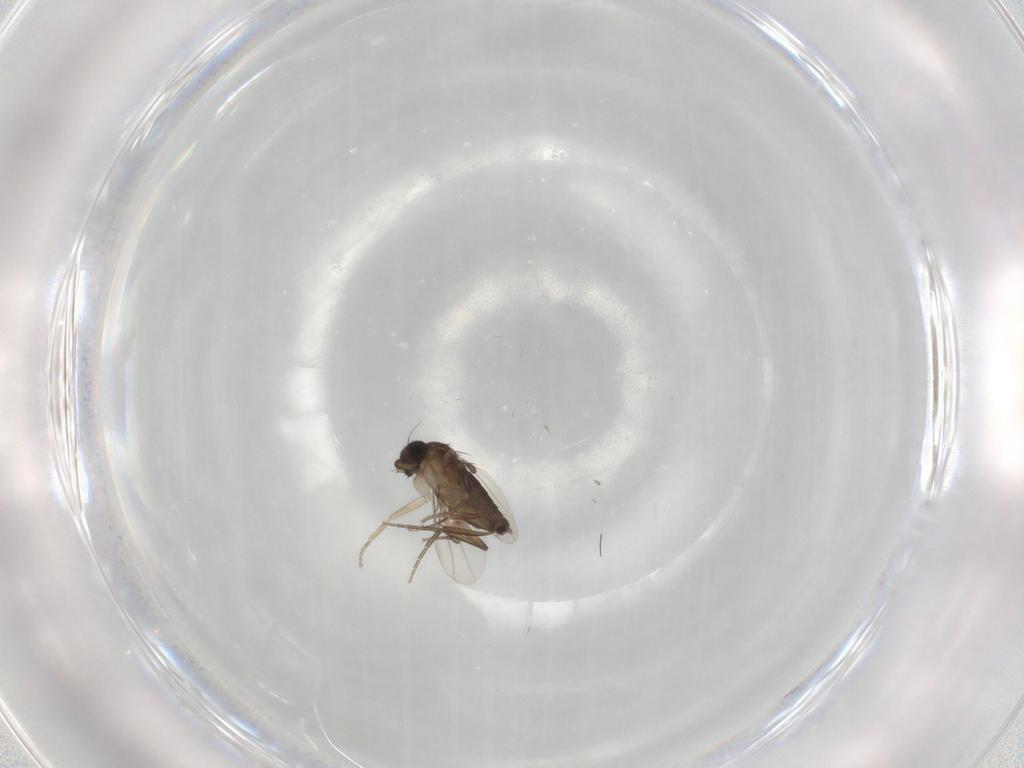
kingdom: Animalia
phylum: Arthropoda
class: Insecta
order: Diptera
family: Phoridae
